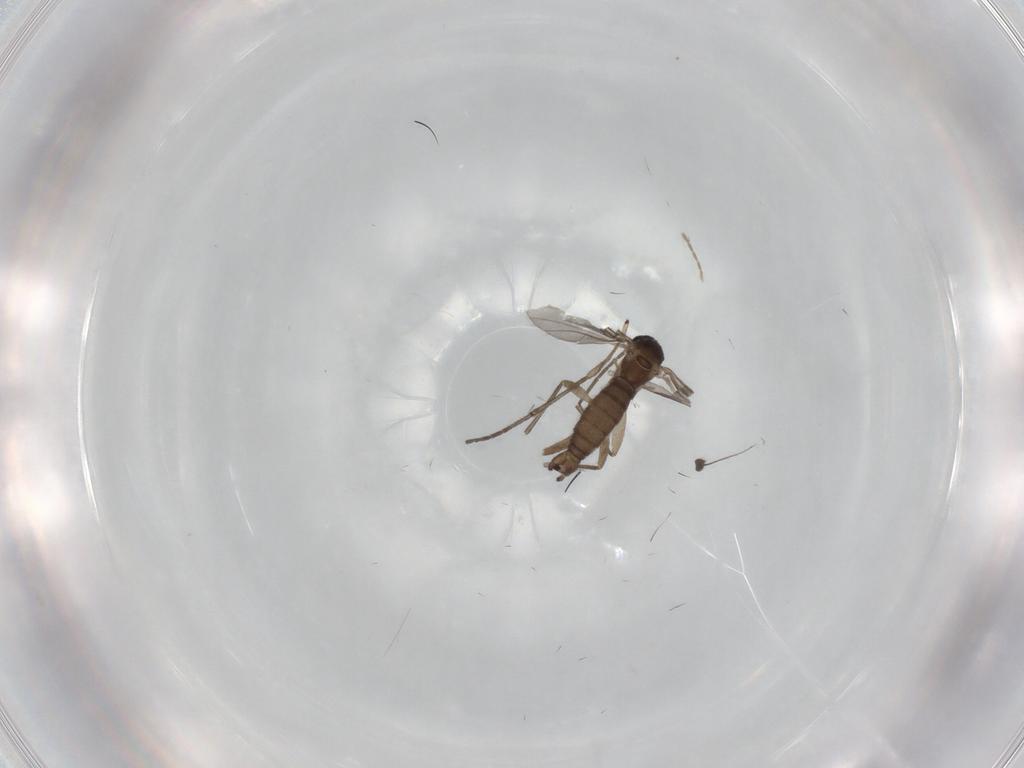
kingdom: Animalia
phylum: Arthropoda
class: Insecta
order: Diptera
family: Sciaridae
